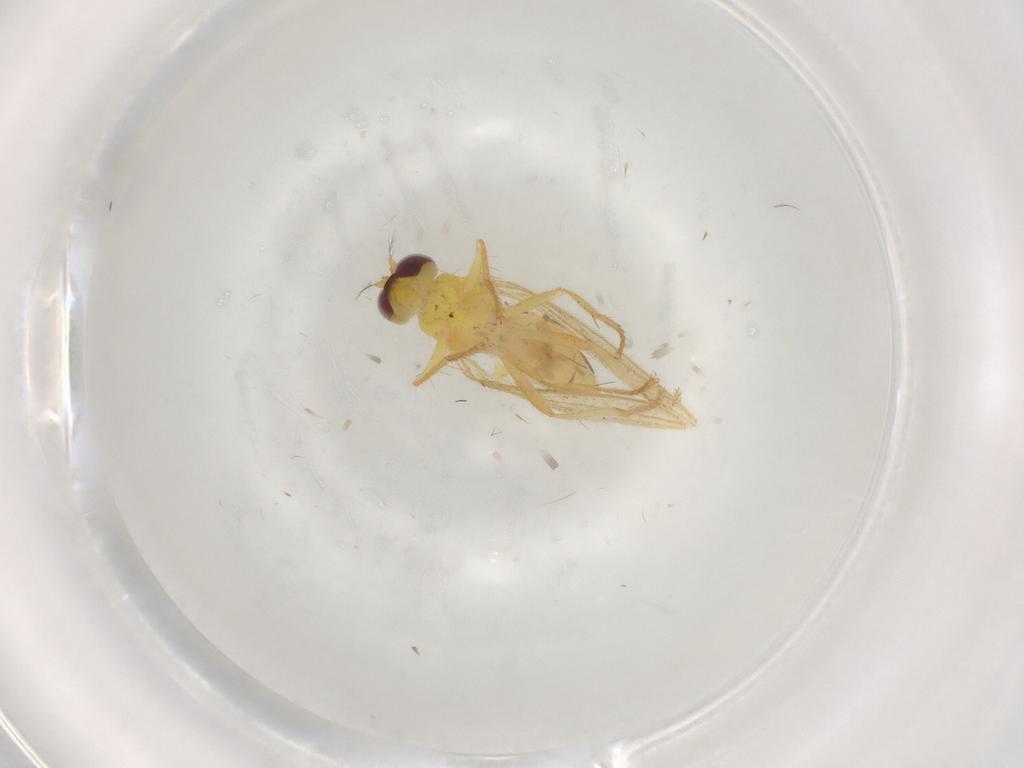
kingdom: Animalia
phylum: Arthropoda
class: Insecta
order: Diptera
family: Periscelididae
